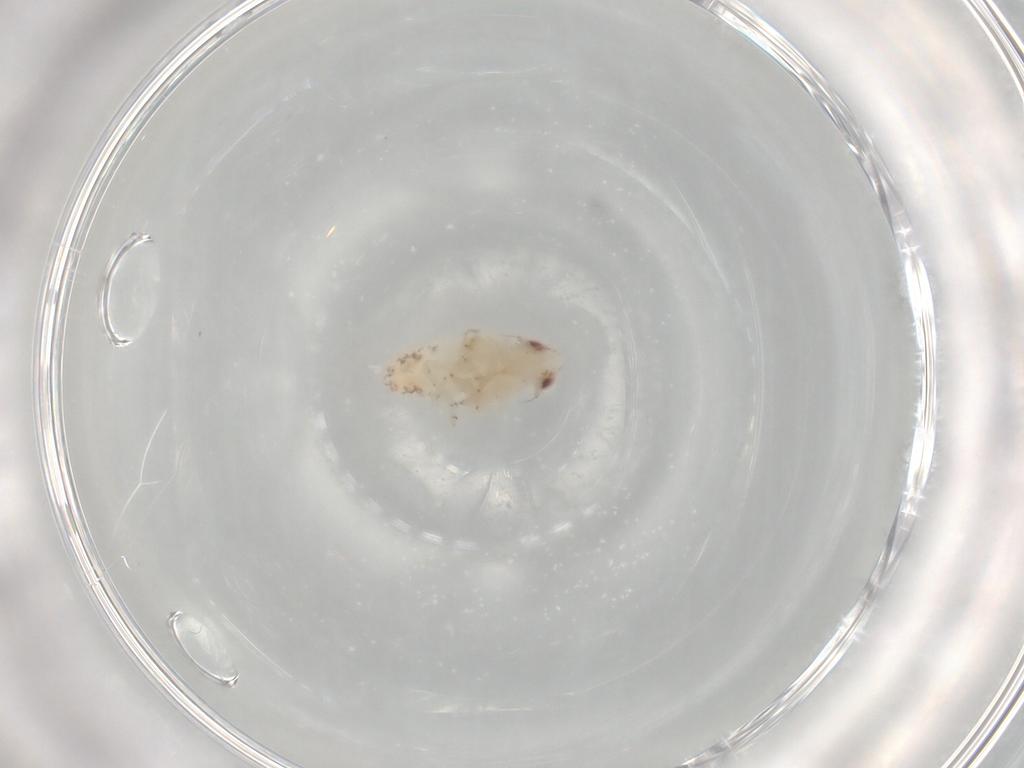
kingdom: Animalia
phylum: Arthropoda
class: Insecta
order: Hemiptera
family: Nogodinidae
